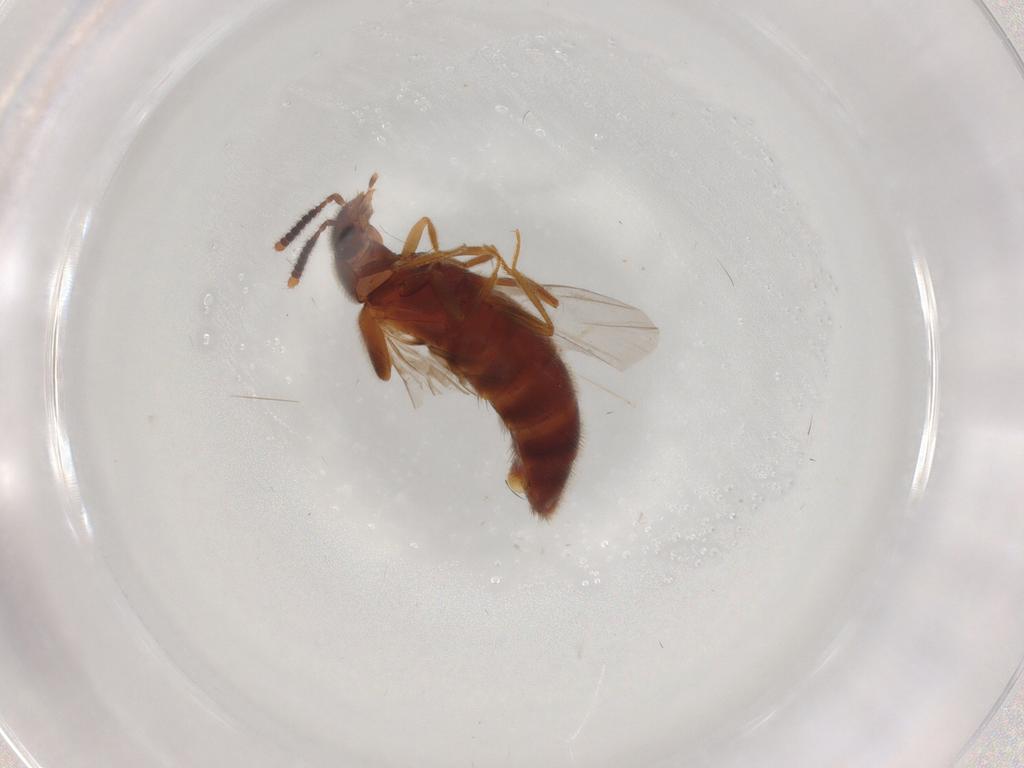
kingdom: Animalia
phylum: Arthropoda
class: Insecta
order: Coleoptera
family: Staphylinidae
